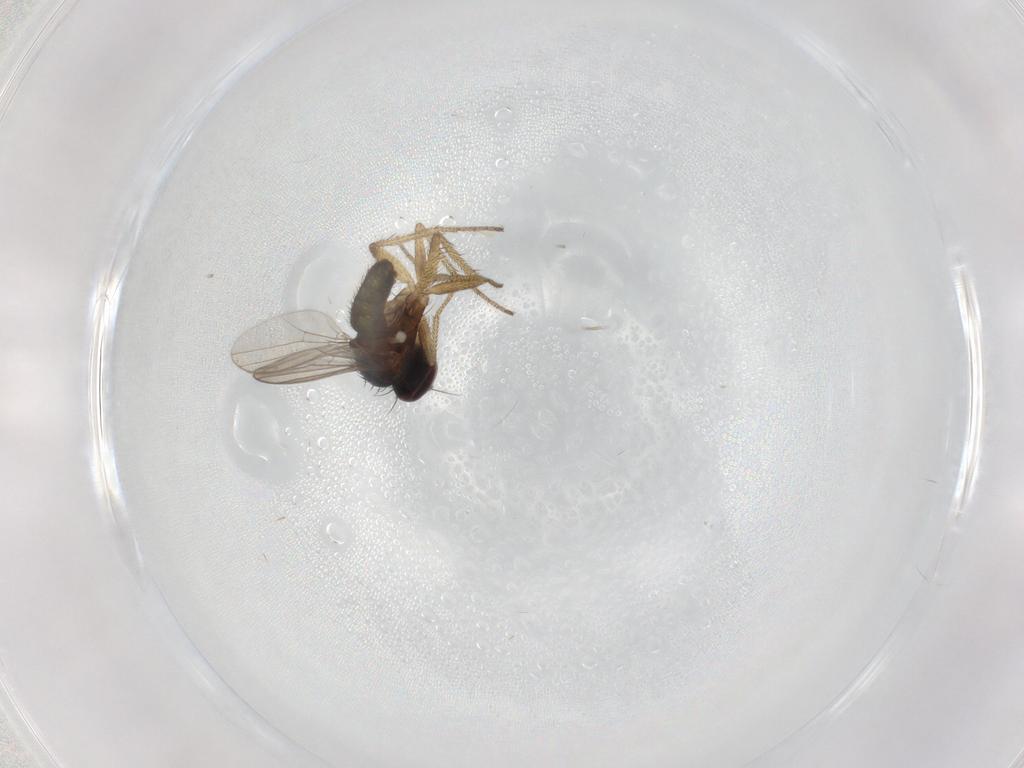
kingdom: Animalia
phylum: Arthropoda
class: Insecta
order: Diptera
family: Dolichopodidae
